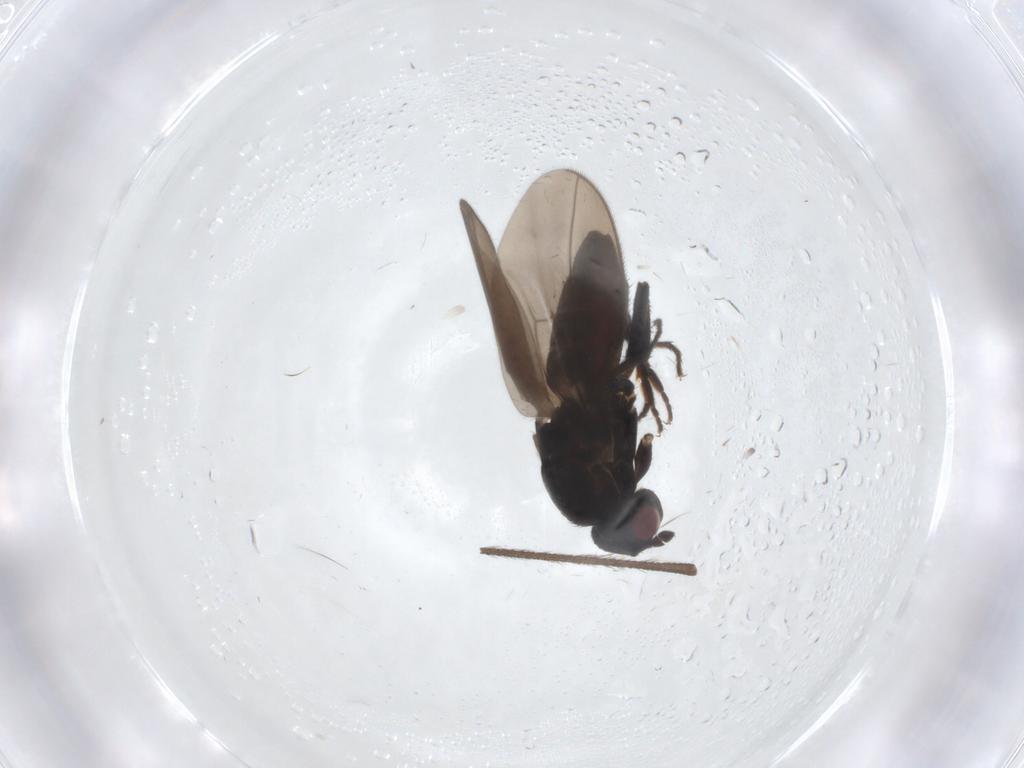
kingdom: Animalia
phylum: Arthropoda
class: Insecta
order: Diptera
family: Sphaeroceridae
